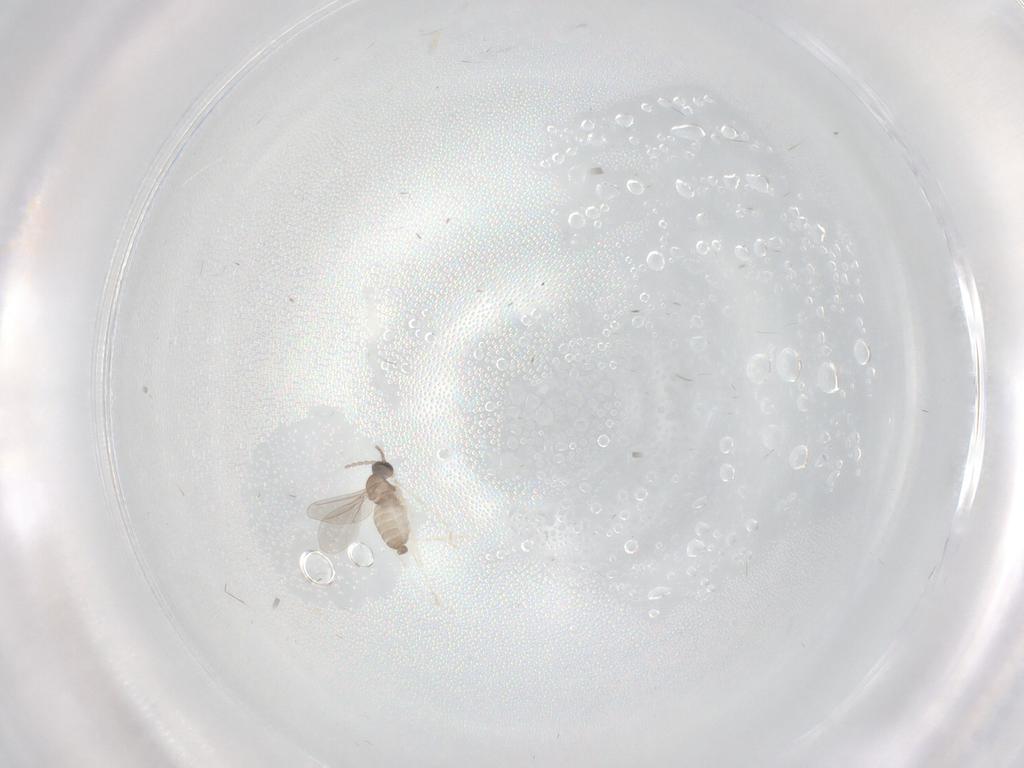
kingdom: Animalia
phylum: Arthropoda
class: Insecta
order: Diptera
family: Cecidomyiidae
